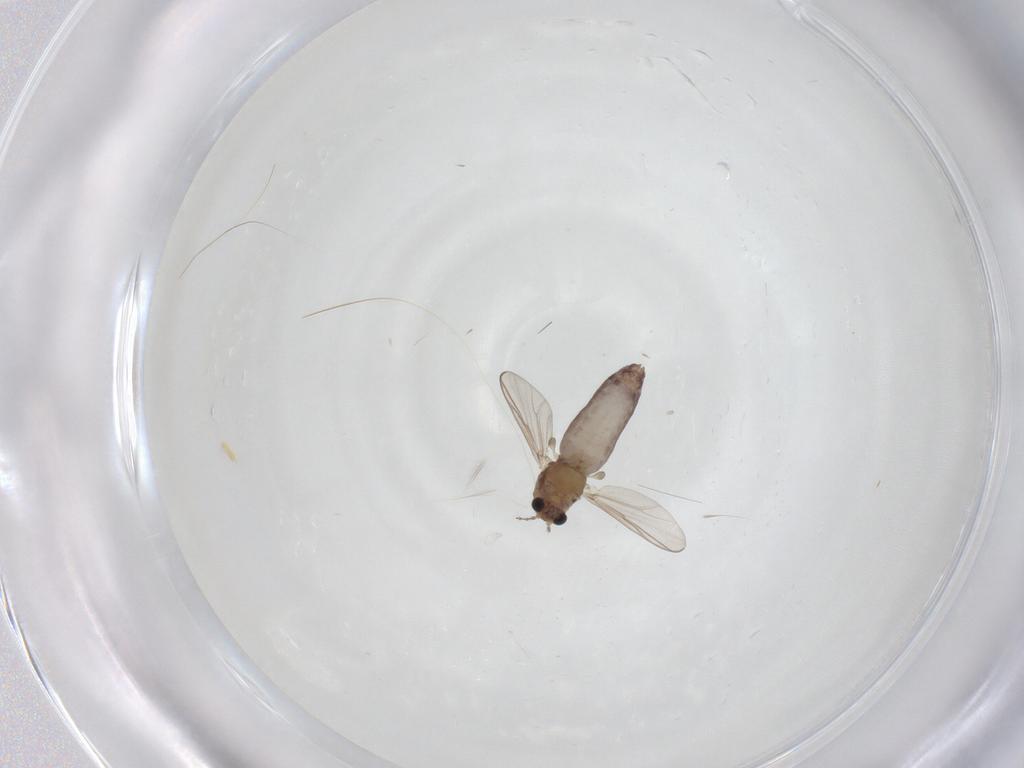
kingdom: Animalia
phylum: Arthropoda
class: Insecta
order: Diptera
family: Chironomidae
